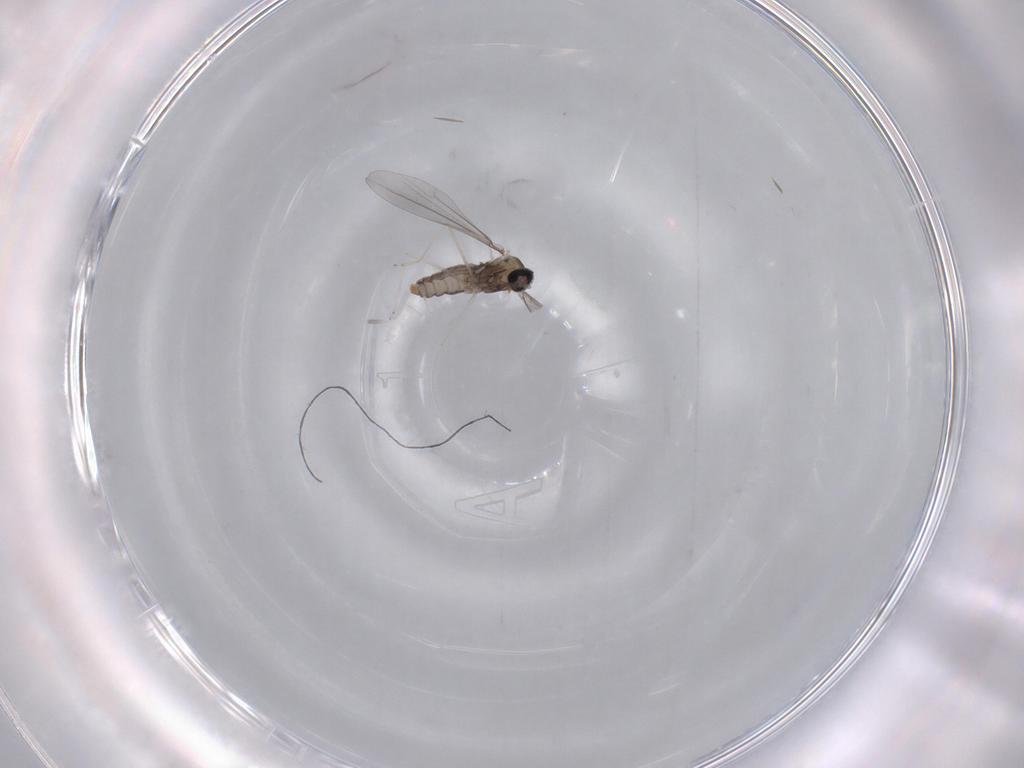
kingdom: Animalia
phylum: Arthropoda
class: Insecta
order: Diptera
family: Cecidomyiidae
